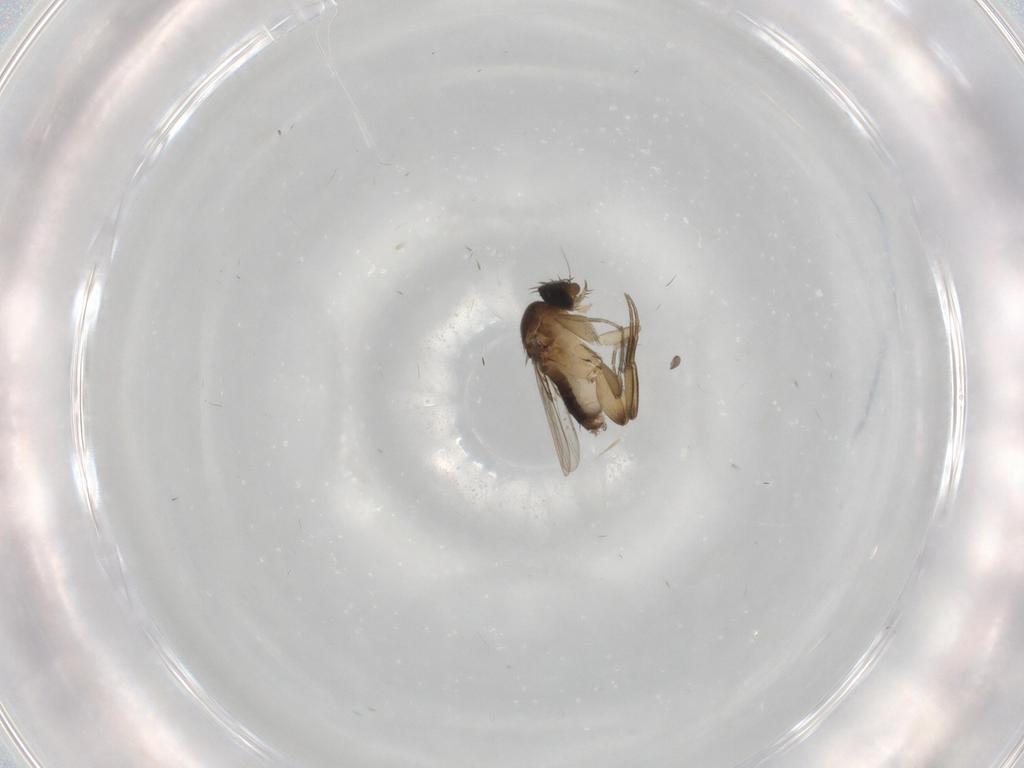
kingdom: Animalia
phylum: Arthropoda
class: Insecta
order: Diptera
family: Phoridae
